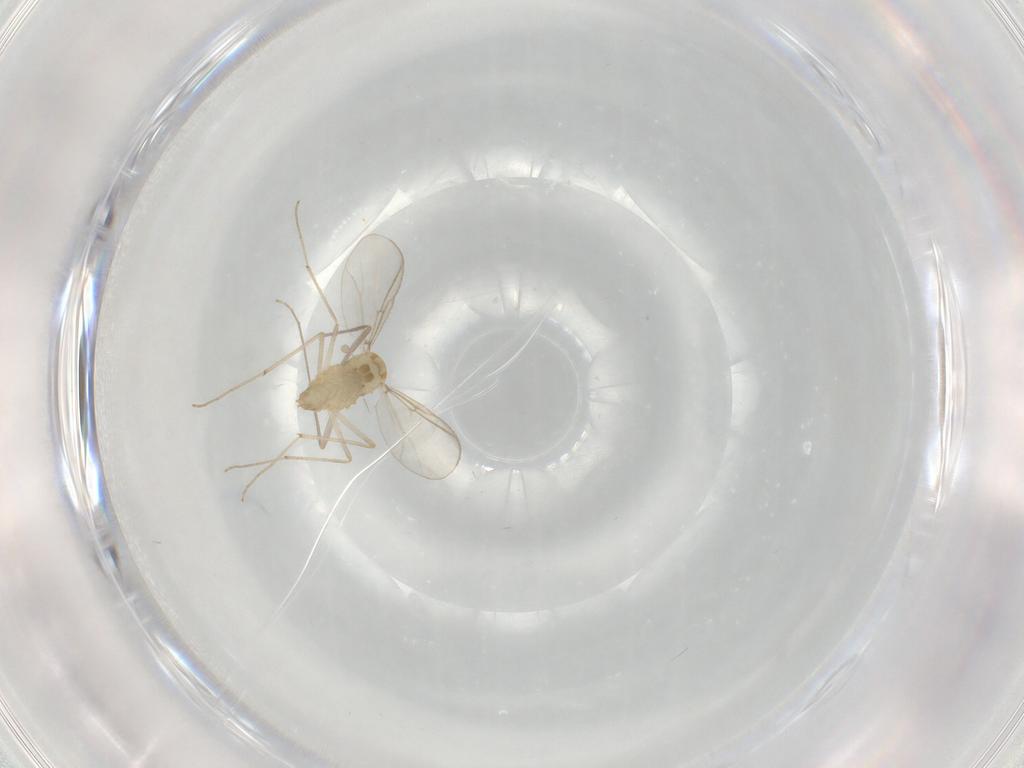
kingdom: Animalia
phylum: Arthropoda
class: Insecta
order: Diptera
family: Chironomidae
